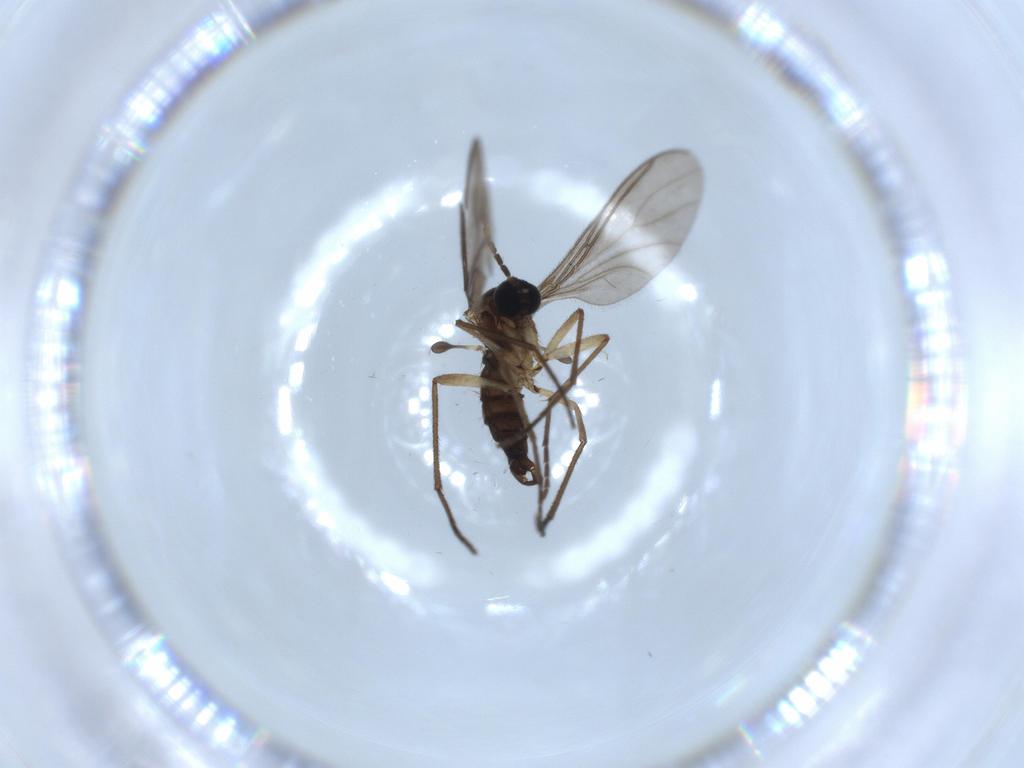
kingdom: Animalia
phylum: Arthropoda
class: Insecta
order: Diptera
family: Sciaridae
